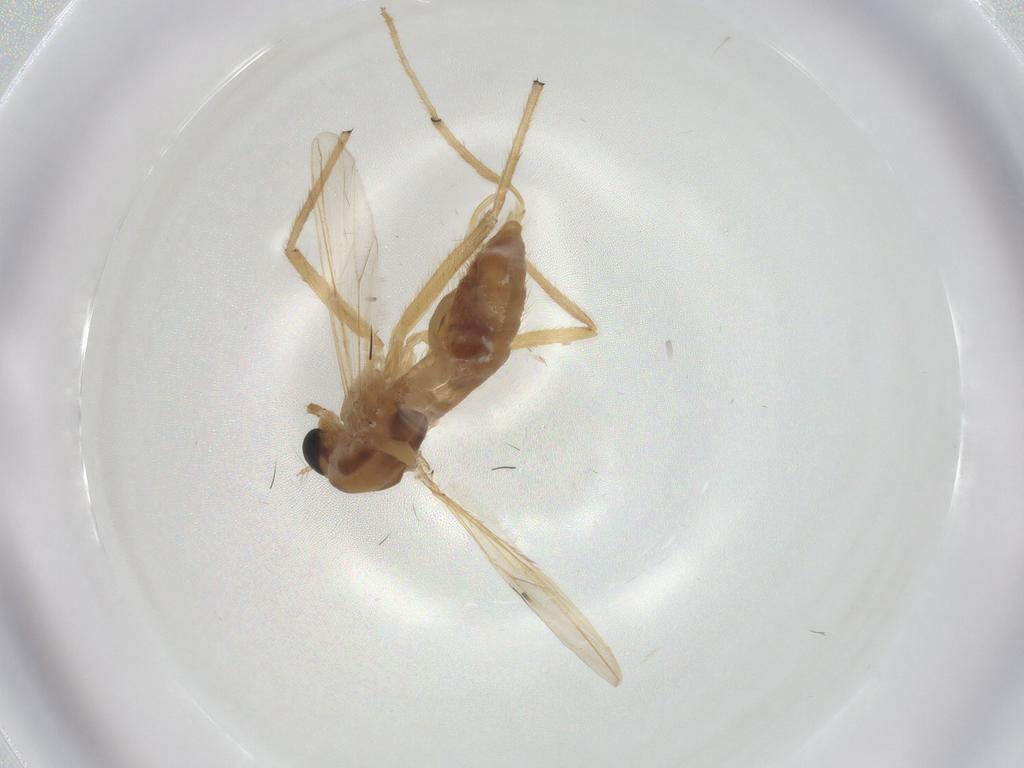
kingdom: Animalia
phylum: Arthropoda
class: Insecta
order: Diptera
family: Chironomidae
